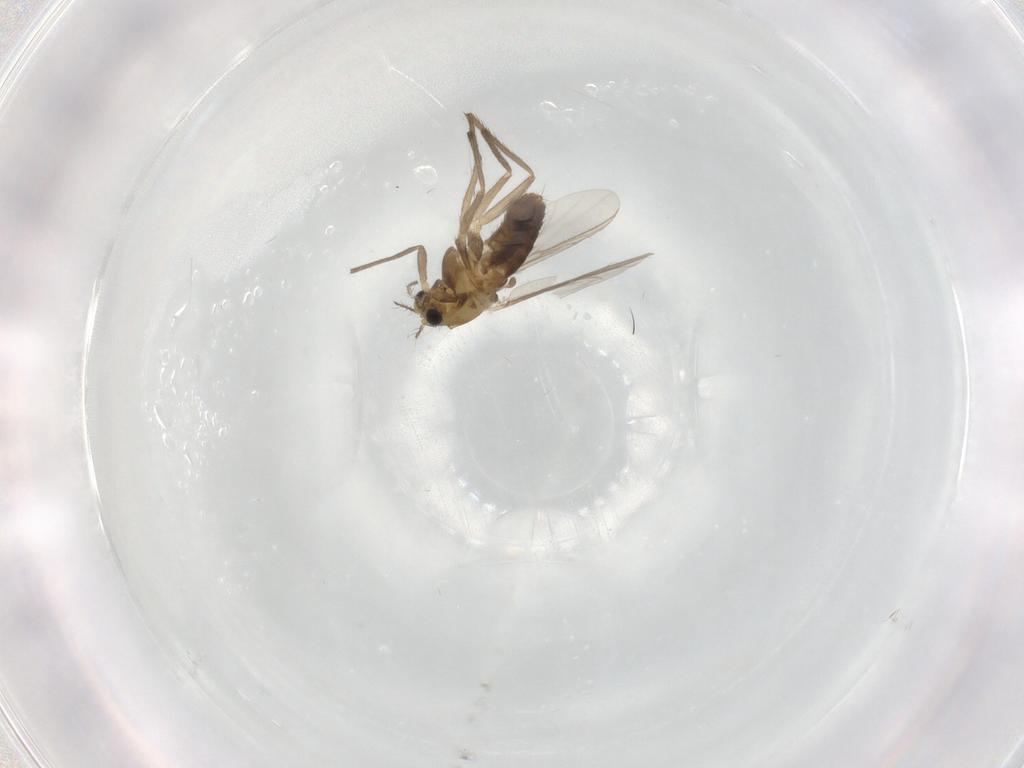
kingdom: Animalia
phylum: Arthropoda
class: Insecta
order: Diptera
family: Chironomidae
